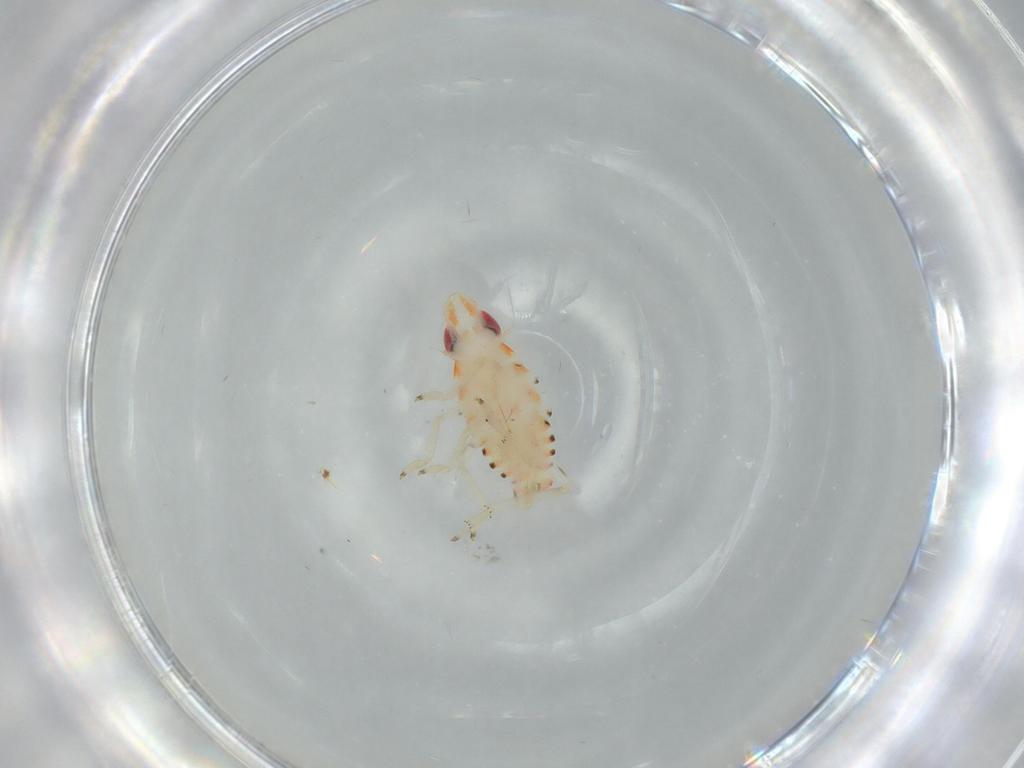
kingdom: Animalia
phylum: Arthropoda
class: Insecta
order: Hemiptera
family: Tropiduchidae
